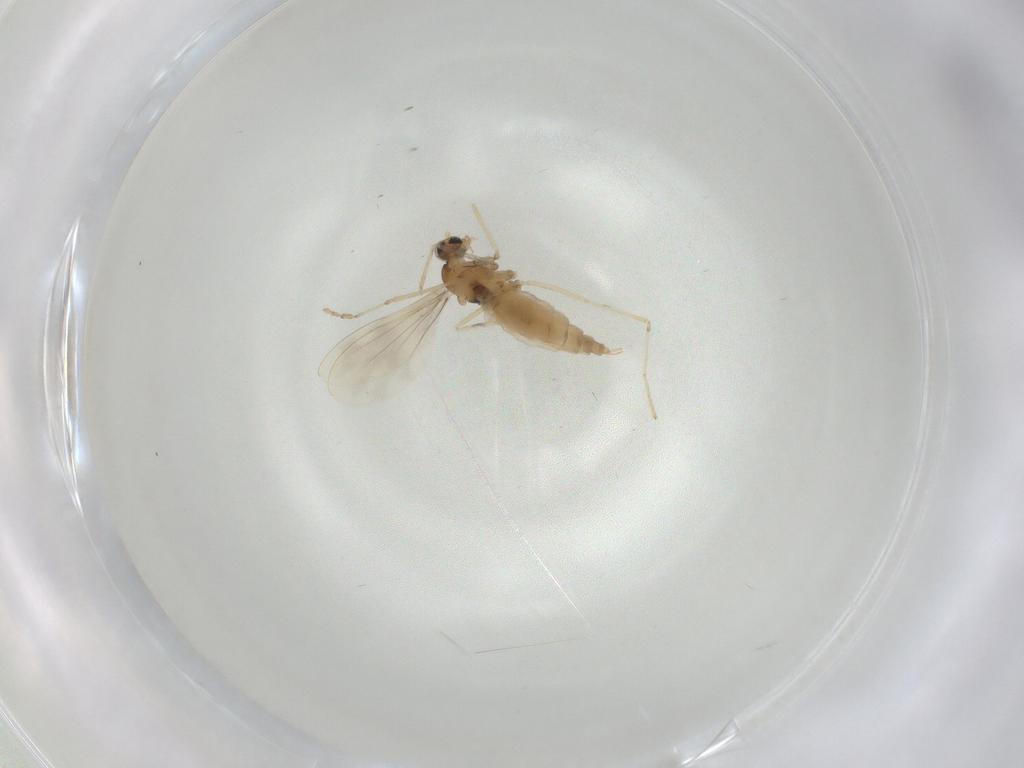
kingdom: Animalia
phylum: Arthropoda
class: Insecta
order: Diptera
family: Cecidomyiidae
